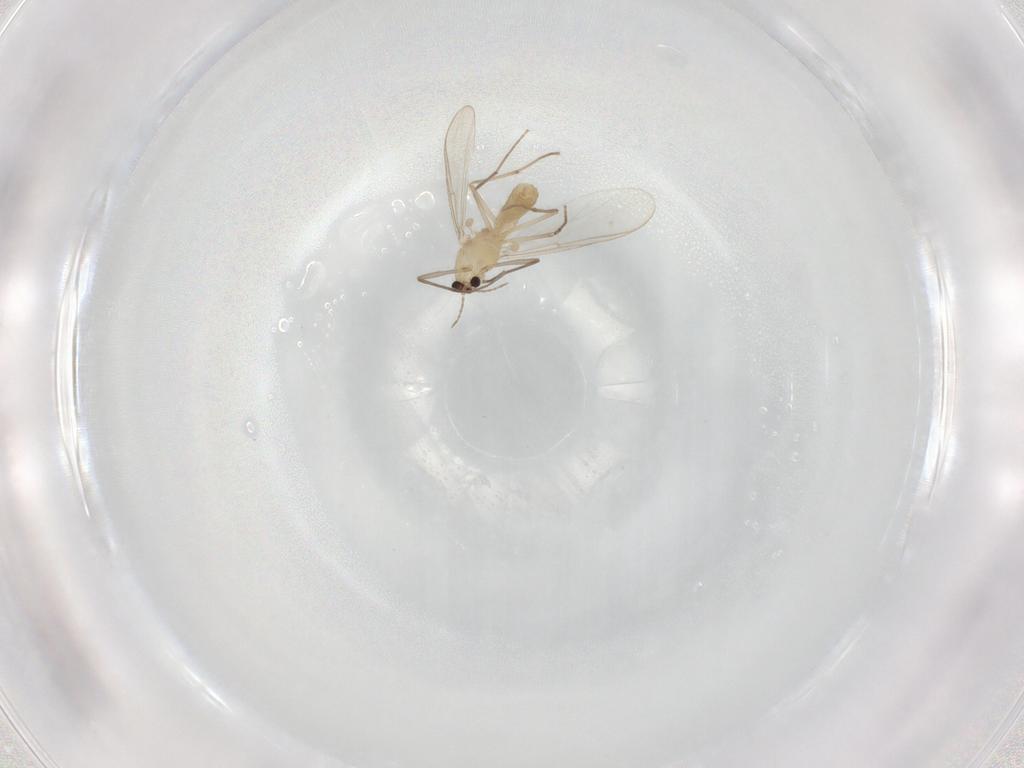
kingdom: Animalia
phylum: Arthropoda
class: Insecta
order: Diptera
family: Chironomidae
